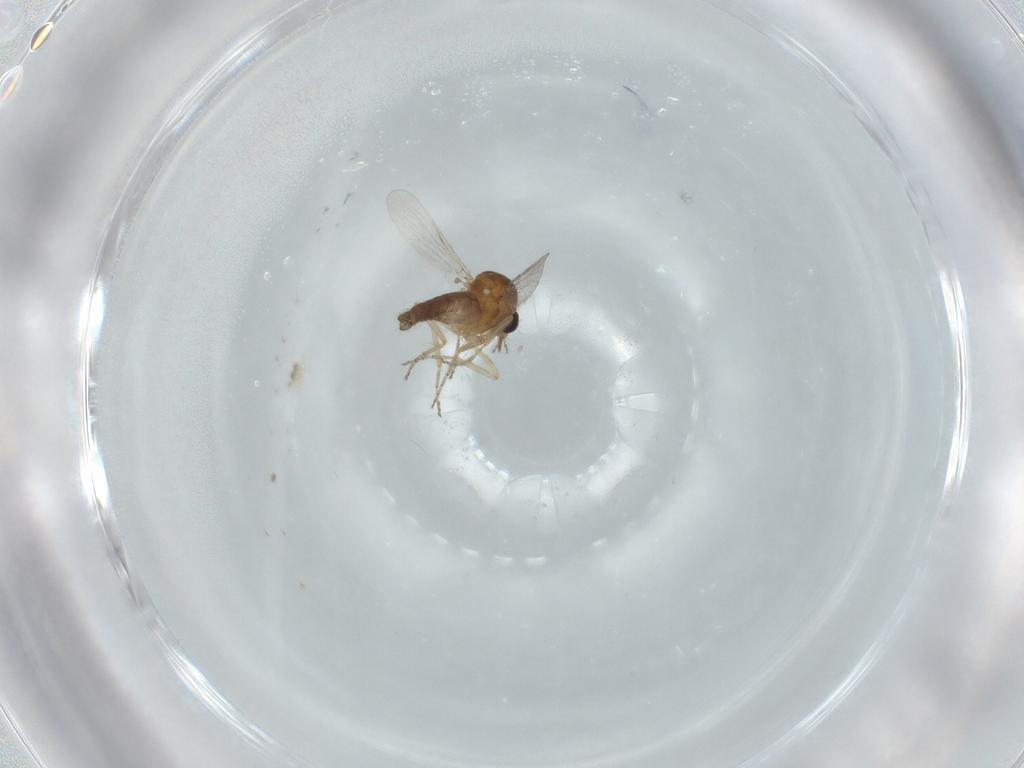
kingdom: Animalia
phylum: Arthropoda
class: Insecta
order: Diptera
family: Ceratopogonidae
